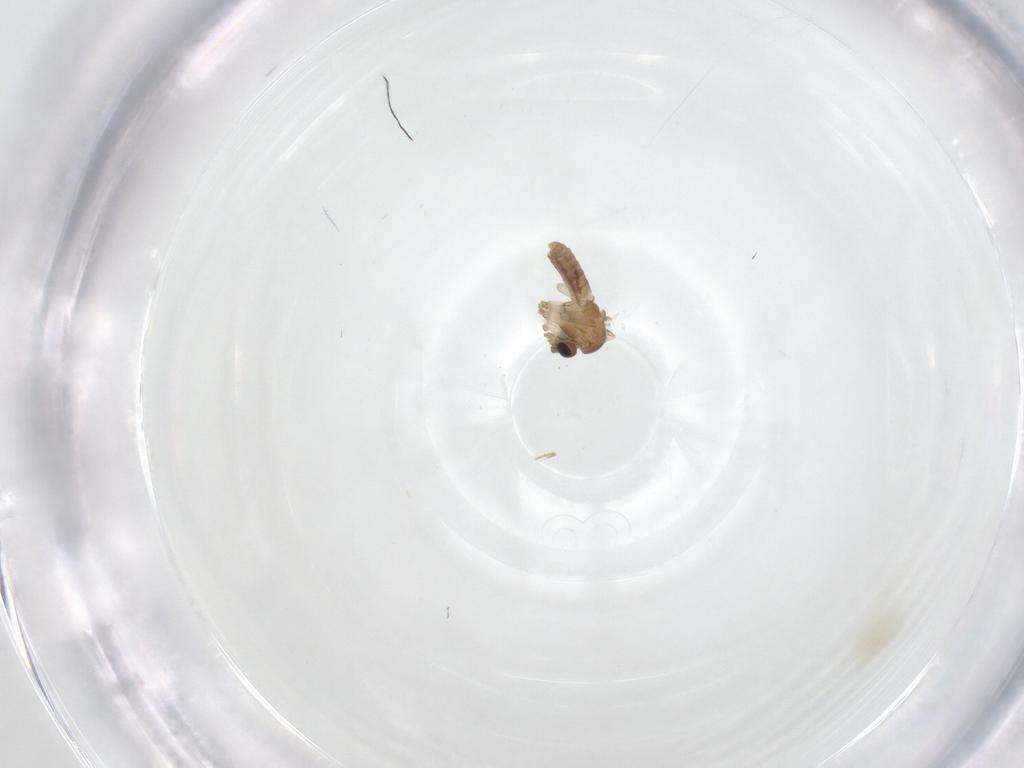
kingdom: Animalia
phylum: Arthropoda
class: Insecta
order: Diptera
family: Psychodidae
